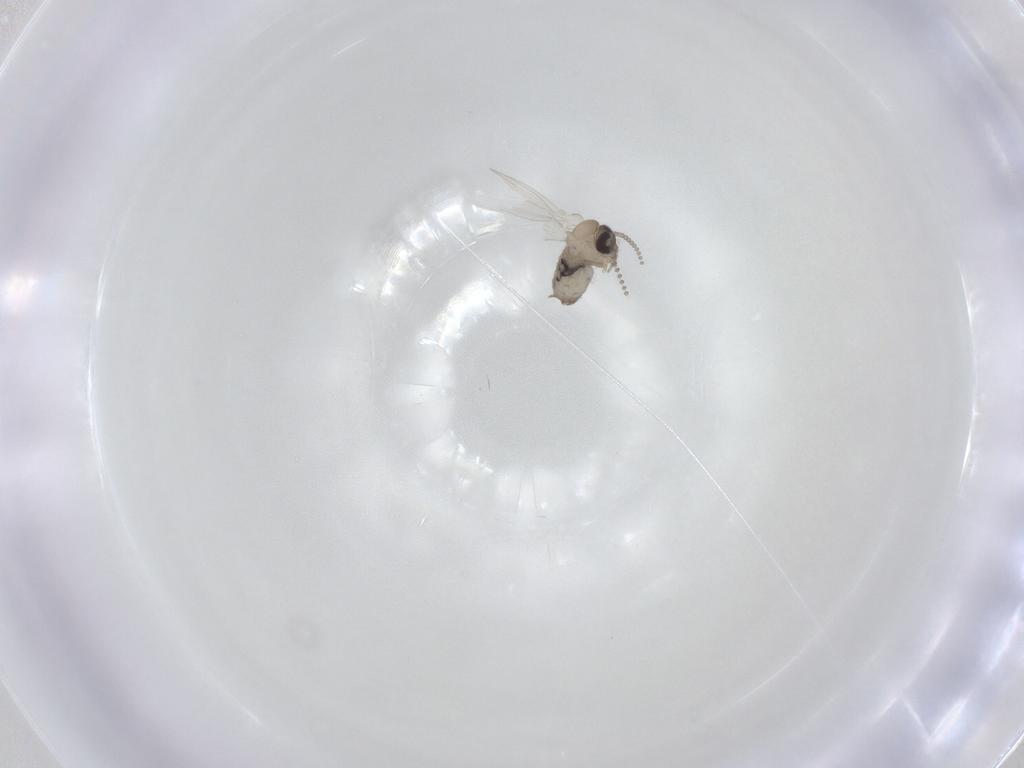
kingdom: Animalia
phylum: Arthropoda
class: Insecta
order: Diptera
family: Psychodidae
